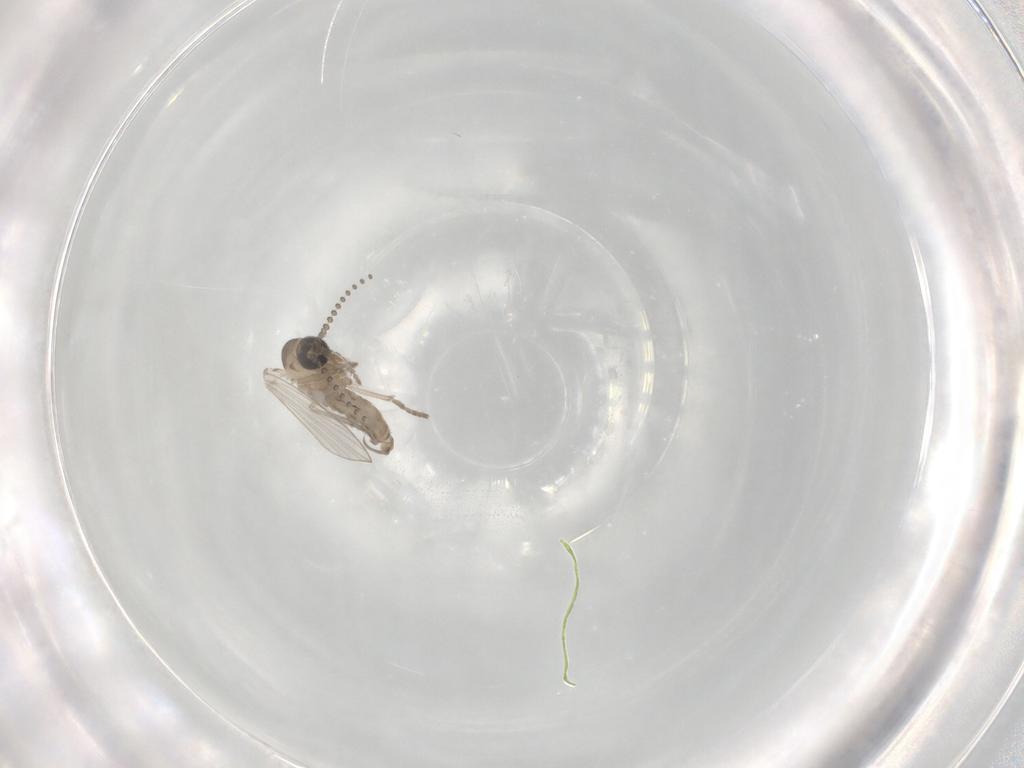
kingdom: Animalia
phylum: Arthropoda
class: Insecta
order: Diptera
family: Psychodidae
